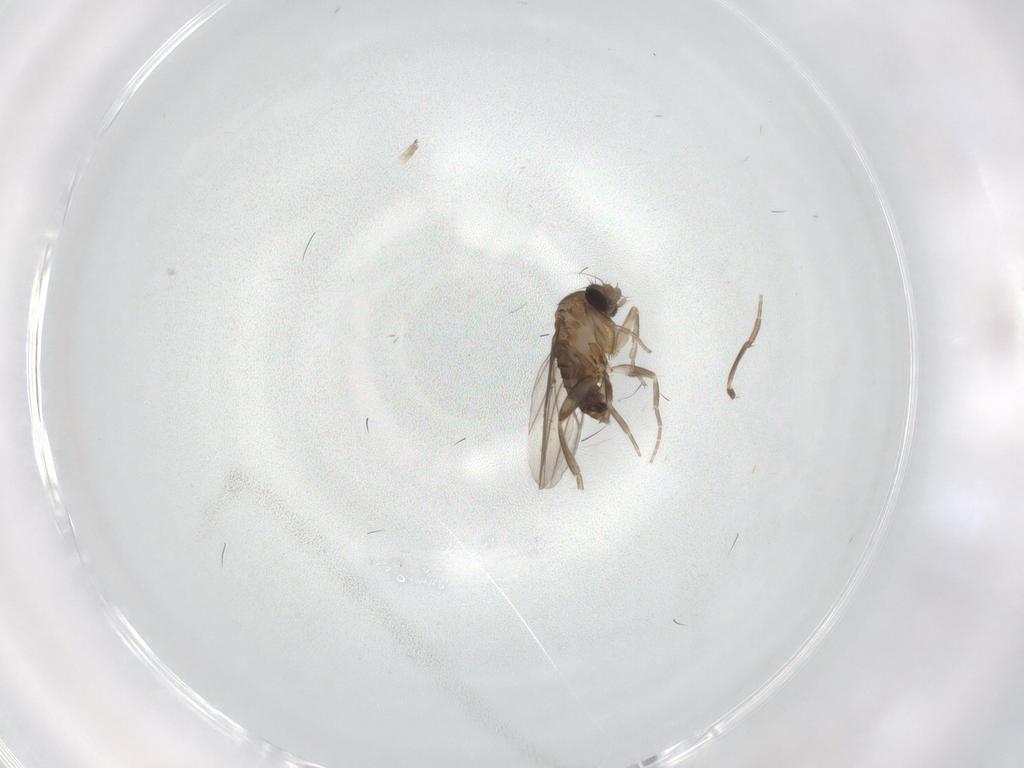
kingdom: Animalia
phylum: Arthropoda
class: Insecta
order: Diptera
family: Phoridae
